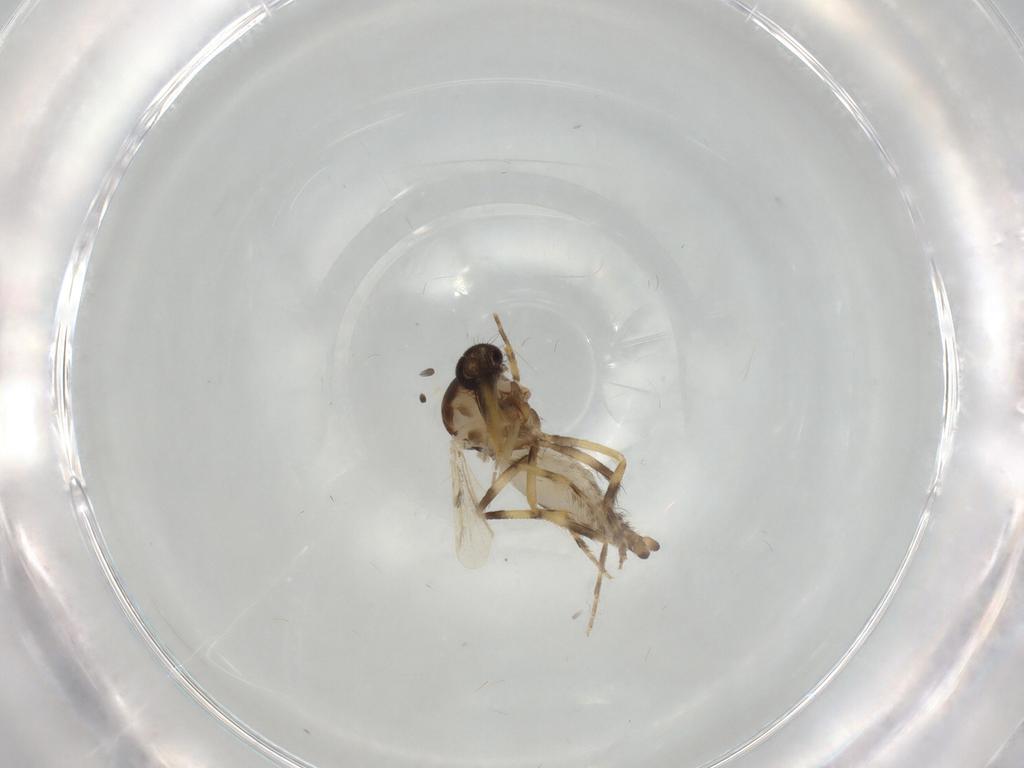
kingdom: Animalia
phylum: Arthropoda
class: Insecta
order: Diptera
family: Ceratopogonidae
